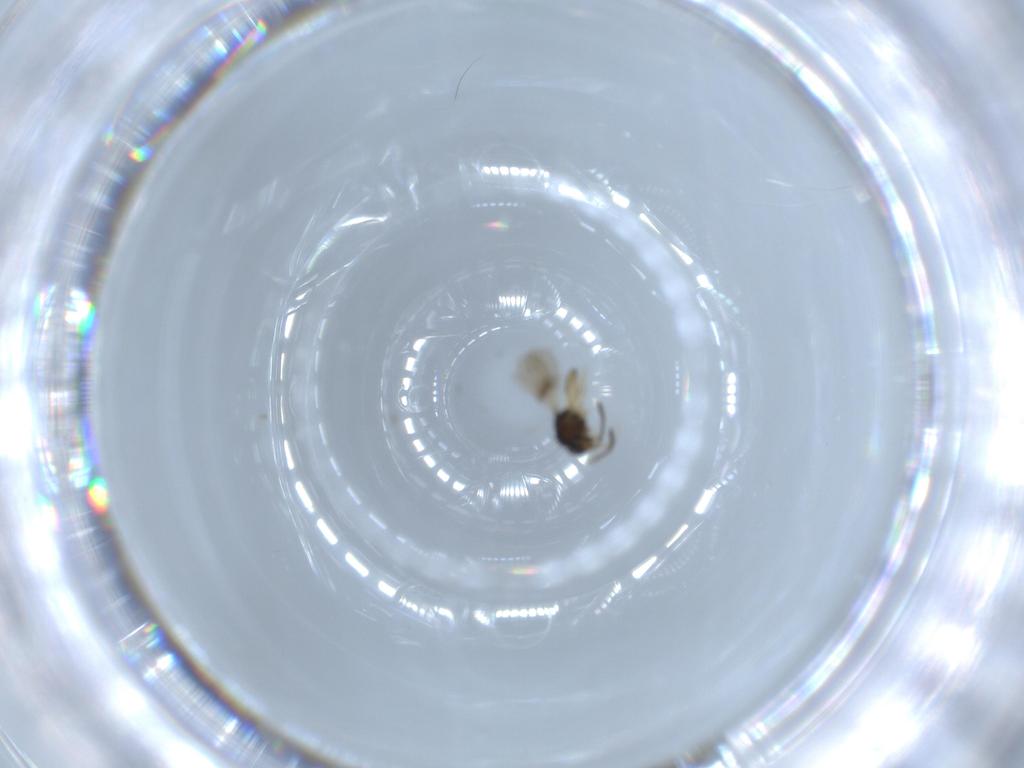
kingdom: Animalia
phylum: Arthropoda
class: Insecta
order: Hymenoptera
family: Scelionidae
